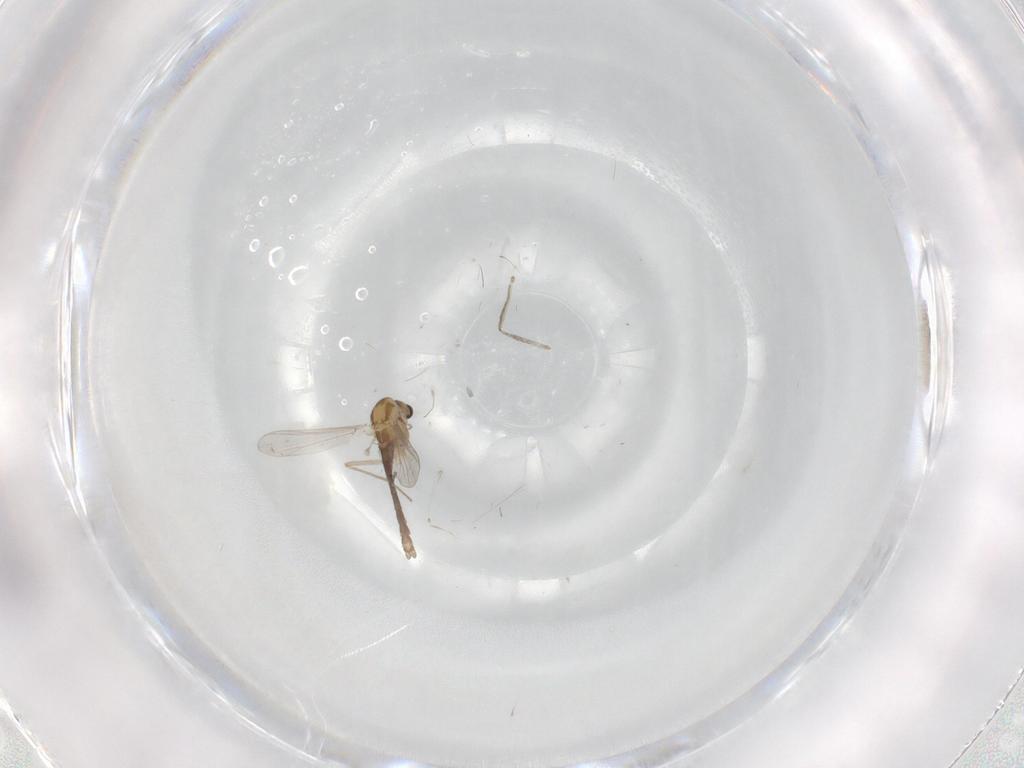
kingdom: Animalia
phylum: Arthropoda
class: Insecta
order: Diptera
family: Chironomidae
